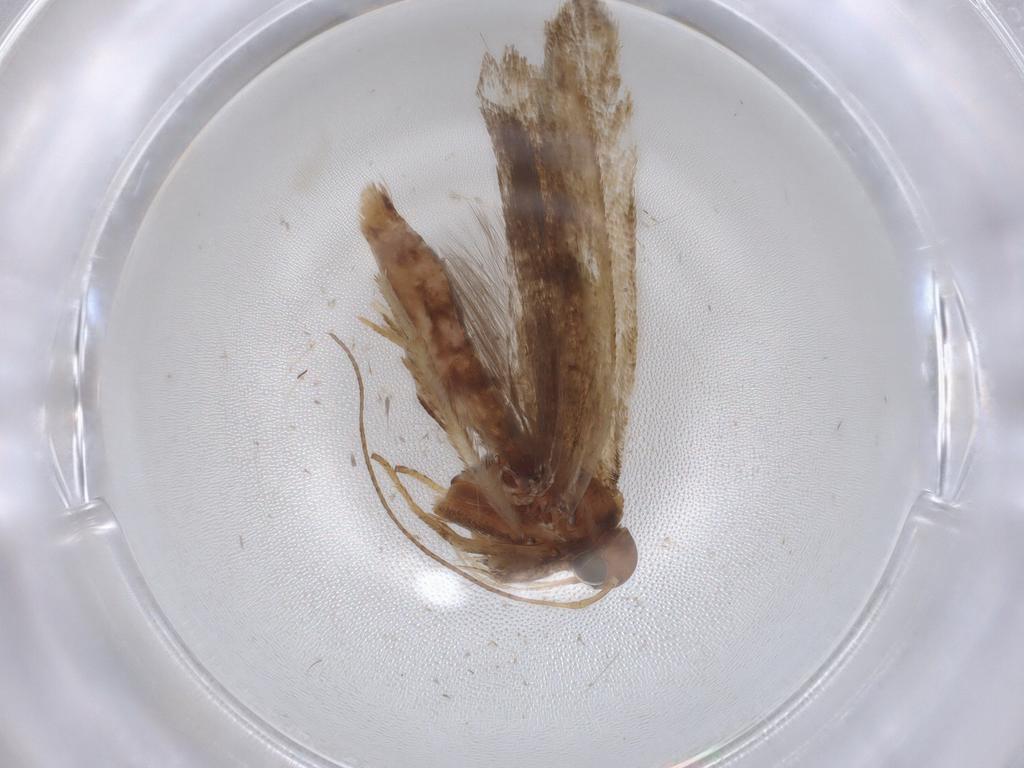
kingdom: Animalia
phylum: Arthropoda
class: Insecta
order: Lepidoptera
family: Gelechiidae
